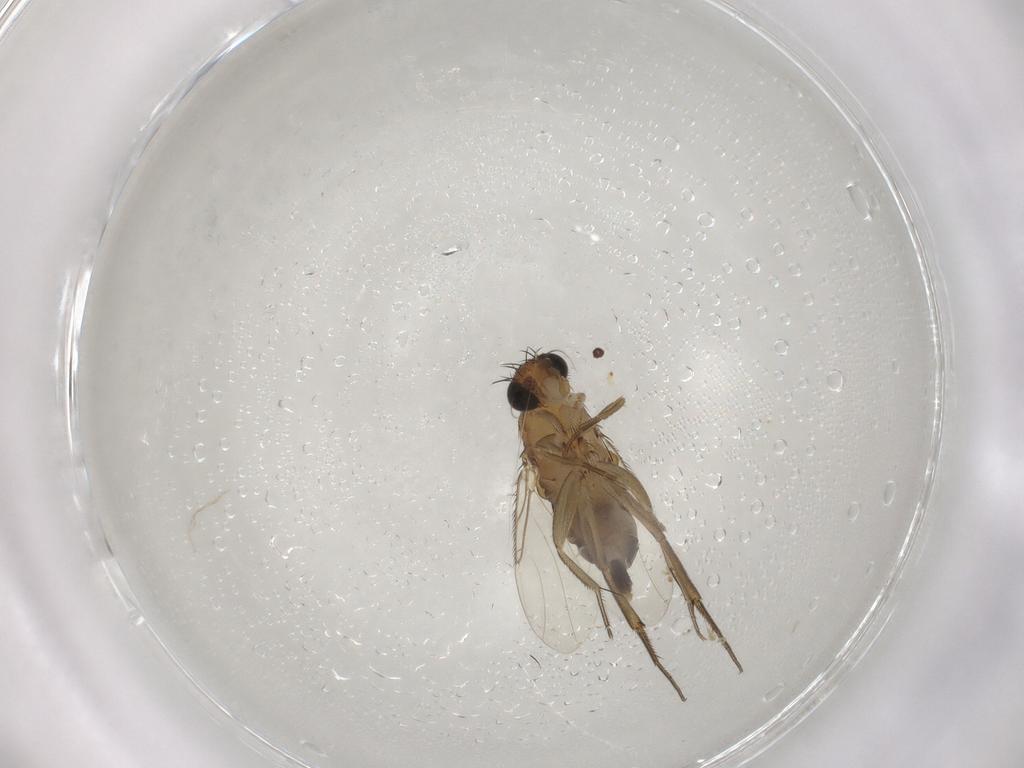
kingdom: Animalia
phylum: Arthropoda
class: Insecta
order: Diptera
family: Phoridae
